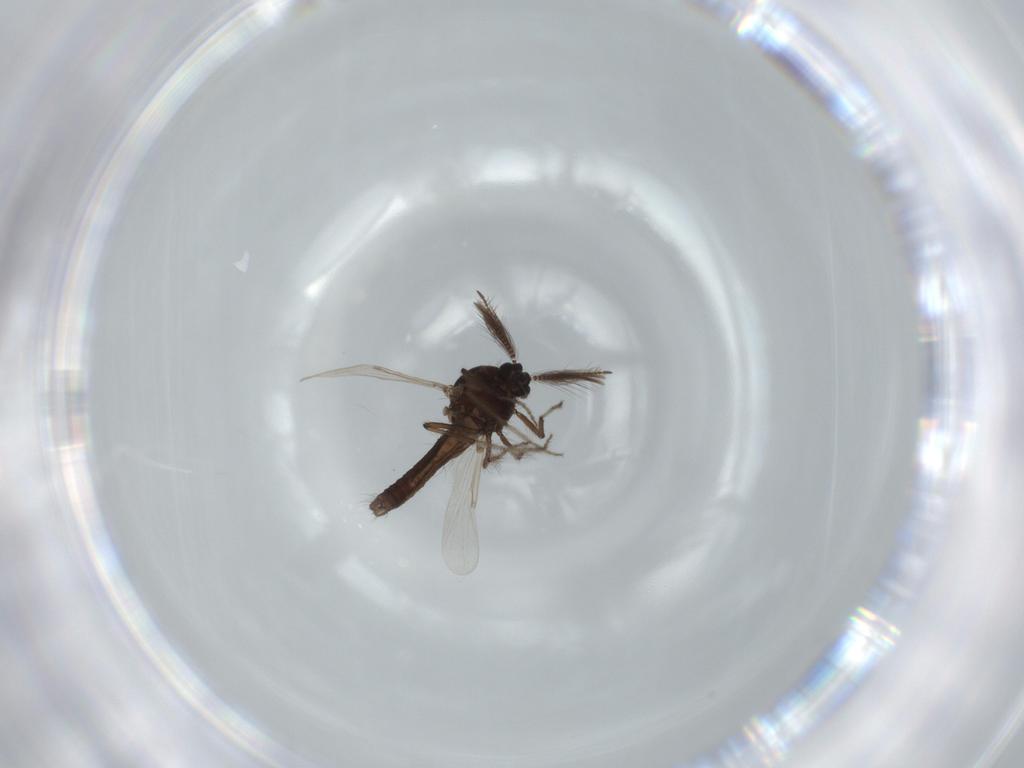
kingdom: Animalia
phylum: Arthropoda
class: Insecta
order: Diptera
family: Ceratopogonidae
